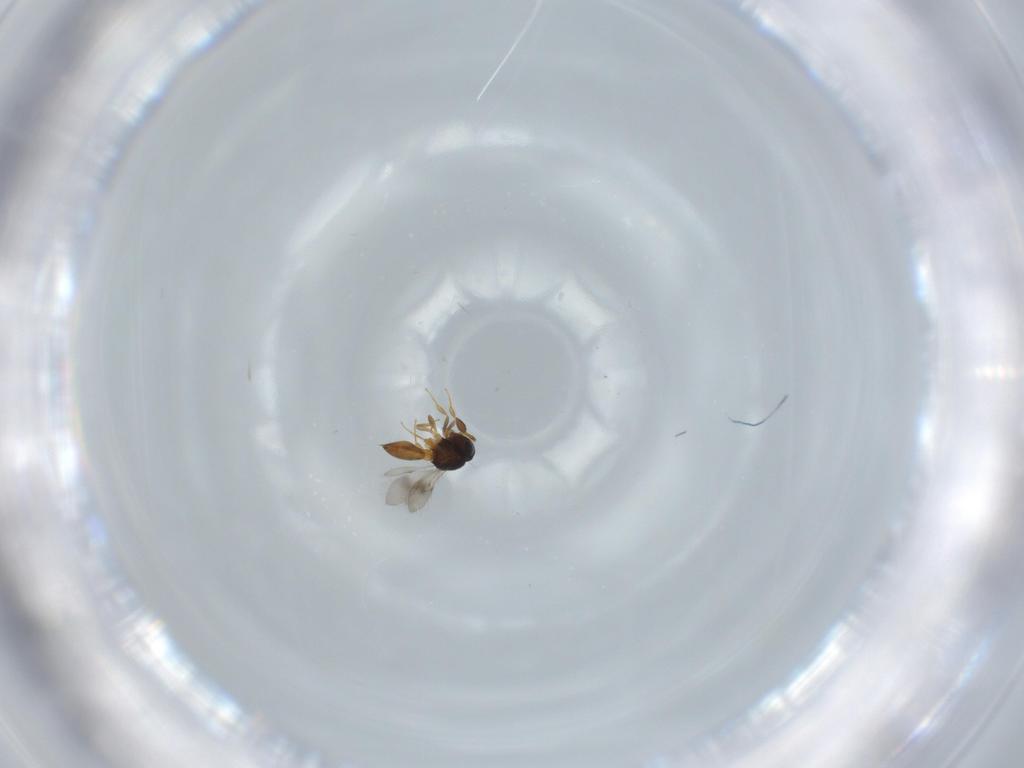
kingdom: Animalia
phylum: Arthropoda
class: Insecta
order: Hymenoptera
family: Scelionidae
